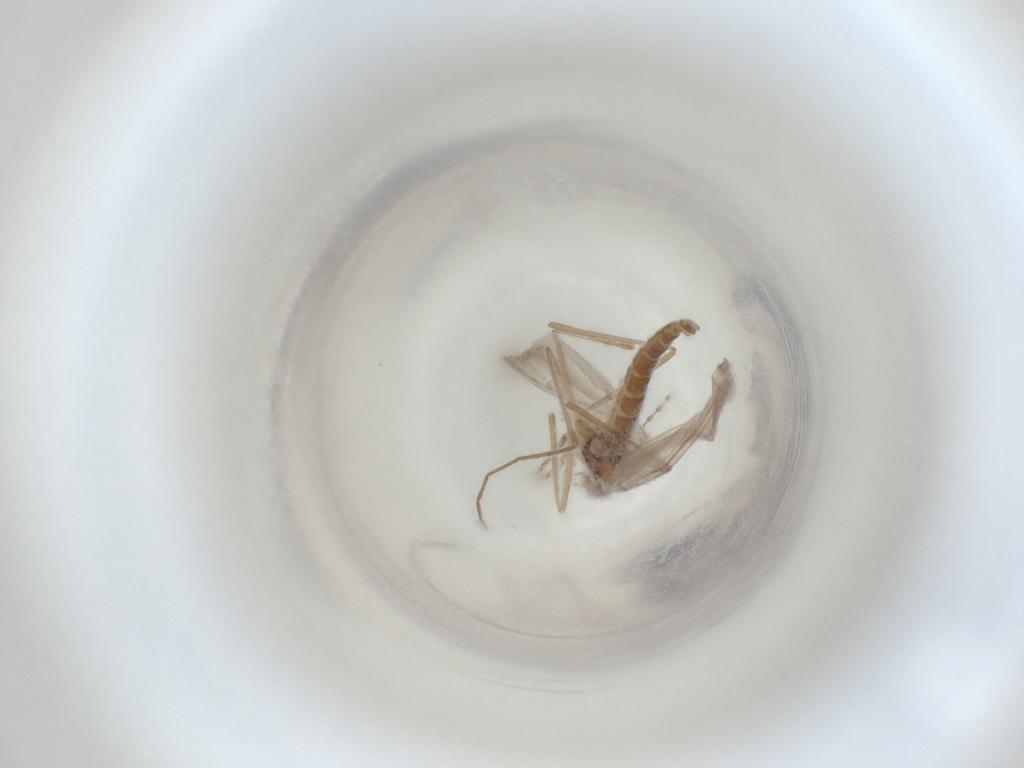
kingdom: Animalia
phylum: Arthropoda
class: Insecta
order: Diptera
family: Cecidomyiidae
